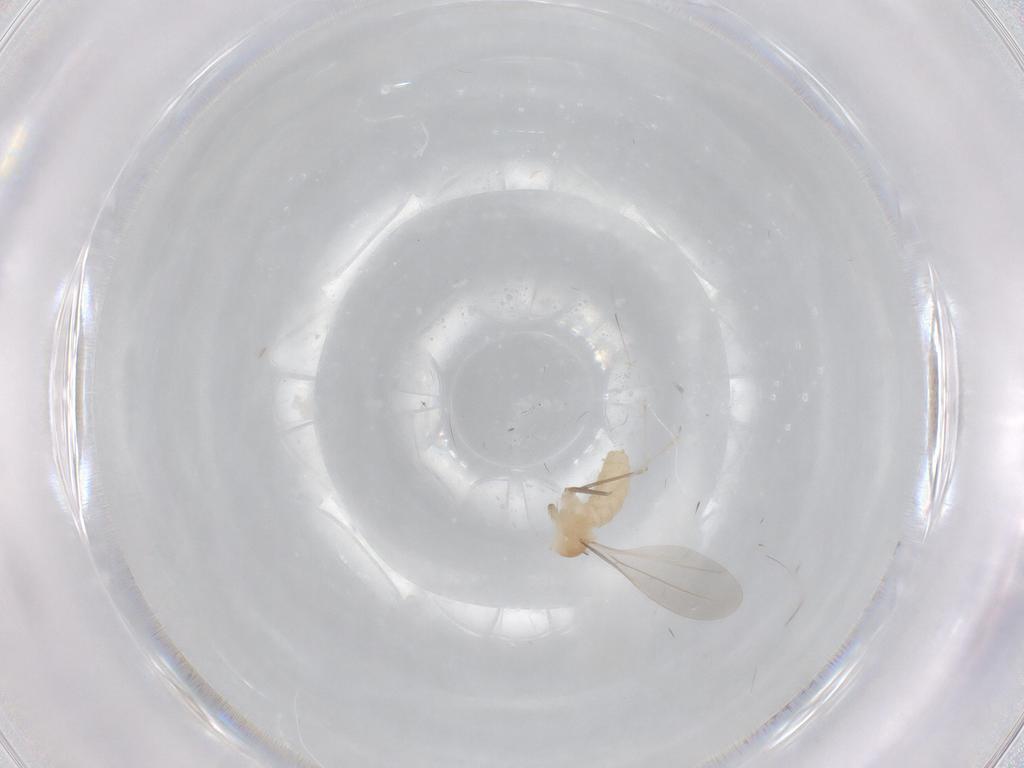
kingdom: Animalia
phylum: Arthropoda
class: Insecta
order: Diptera
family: Cecidomyiidae
